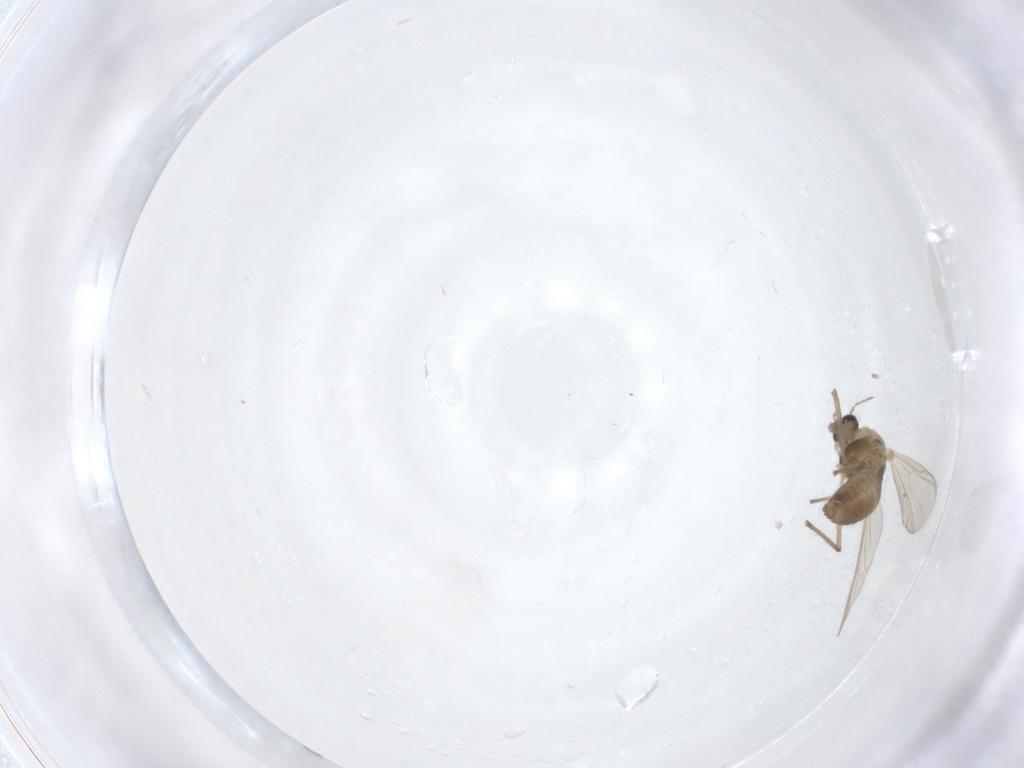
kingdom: Animalia
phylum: Arthropoda
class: Insecta
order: Diptera
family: Chironomidae
